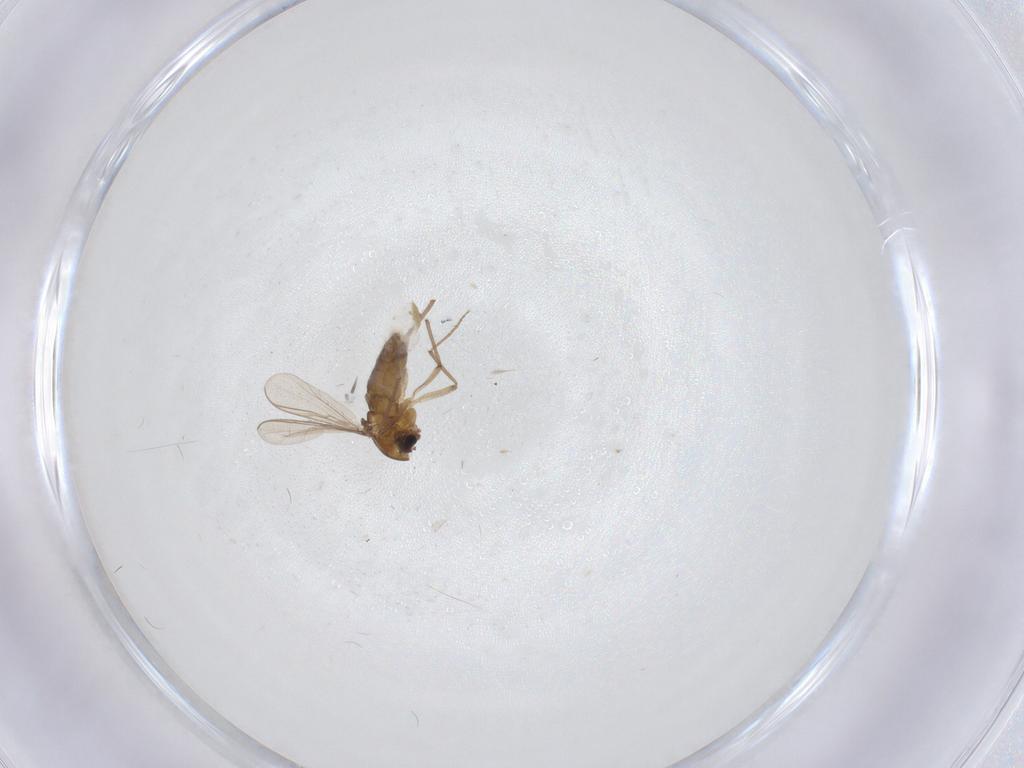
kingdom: Animalia
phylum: Arthropoda
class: Insecta
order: Diptera
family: Chironomidae
